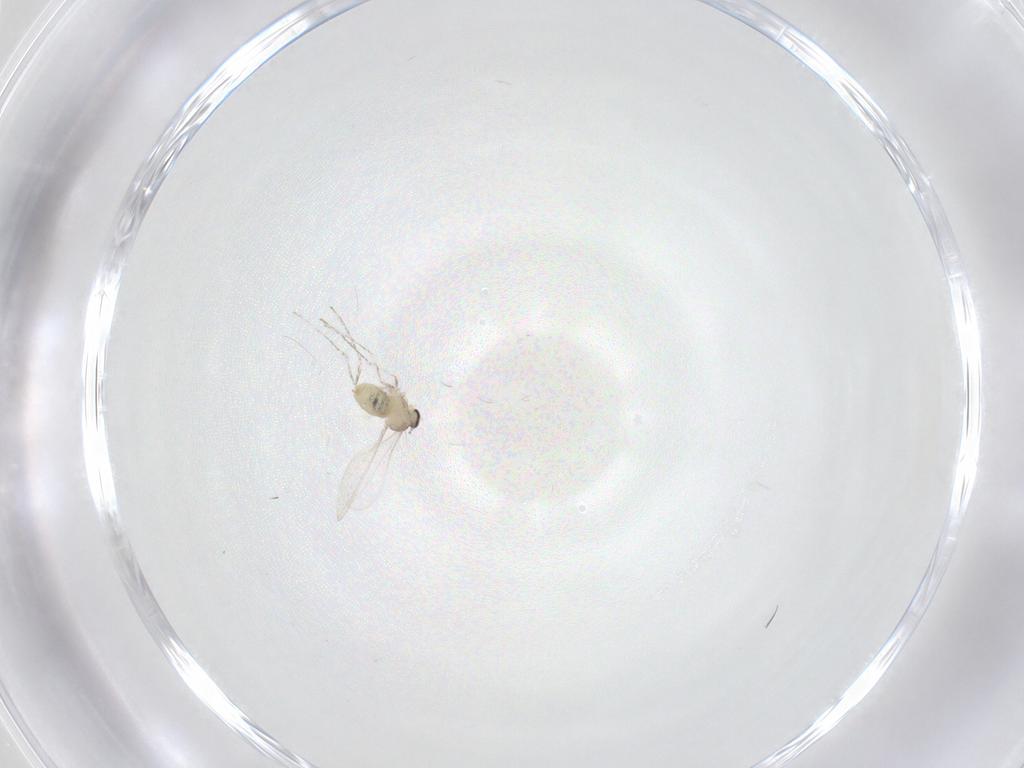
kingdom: Animalia
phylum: Arthropoda
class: Insecta
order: Diptera
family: Cecidomyiidae
